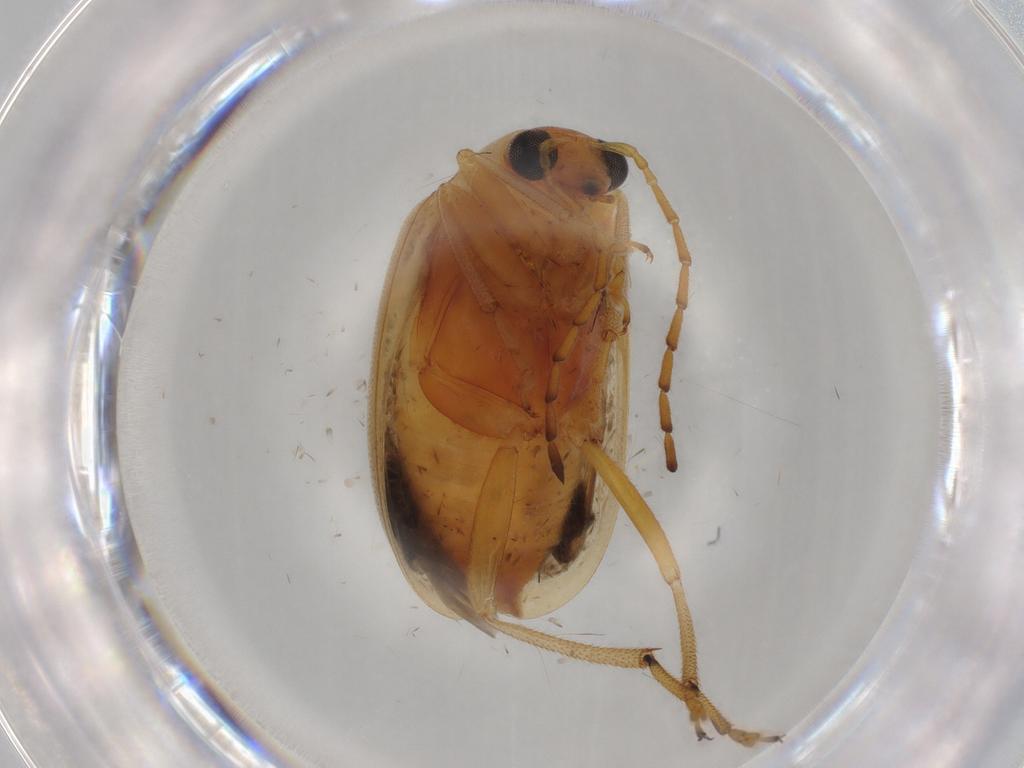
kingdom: Animalia
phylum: Arthropoda
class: Insecta
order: Coleoptera
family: Chrysomelidae
